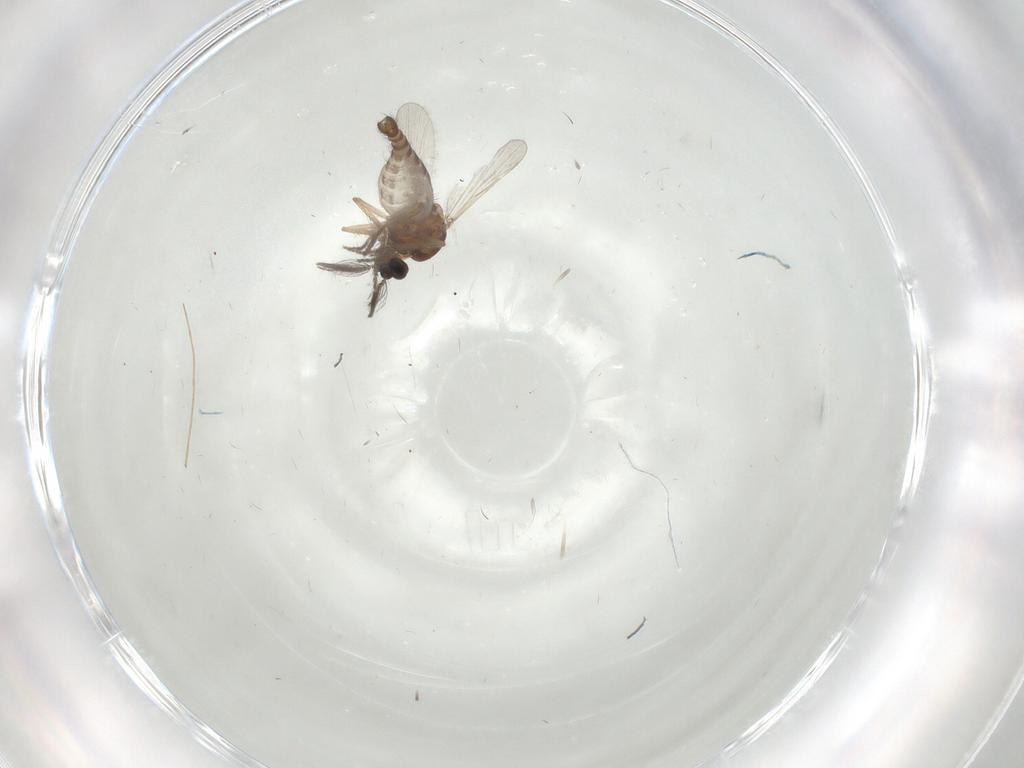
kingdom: Animalia
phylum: Arthropoda
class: Insecta
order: Diptera
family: Ceratopogonidae
